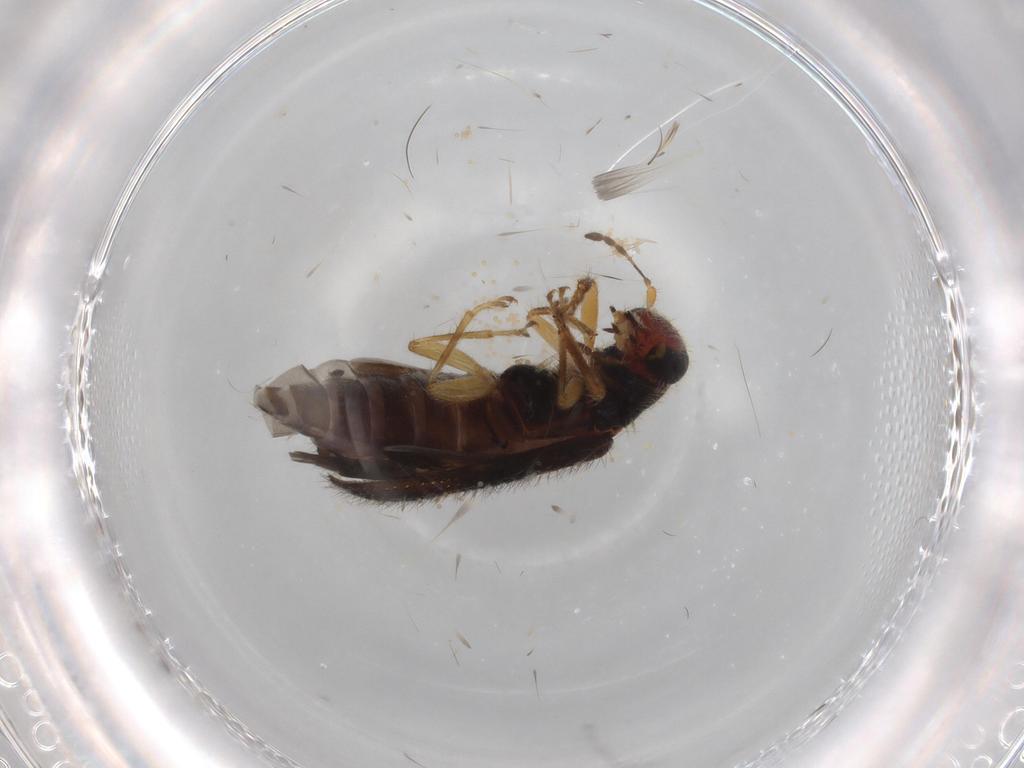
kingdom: Animalia
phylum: Arthropoda
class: Insecta
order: Coleoptera
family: Cleridae
